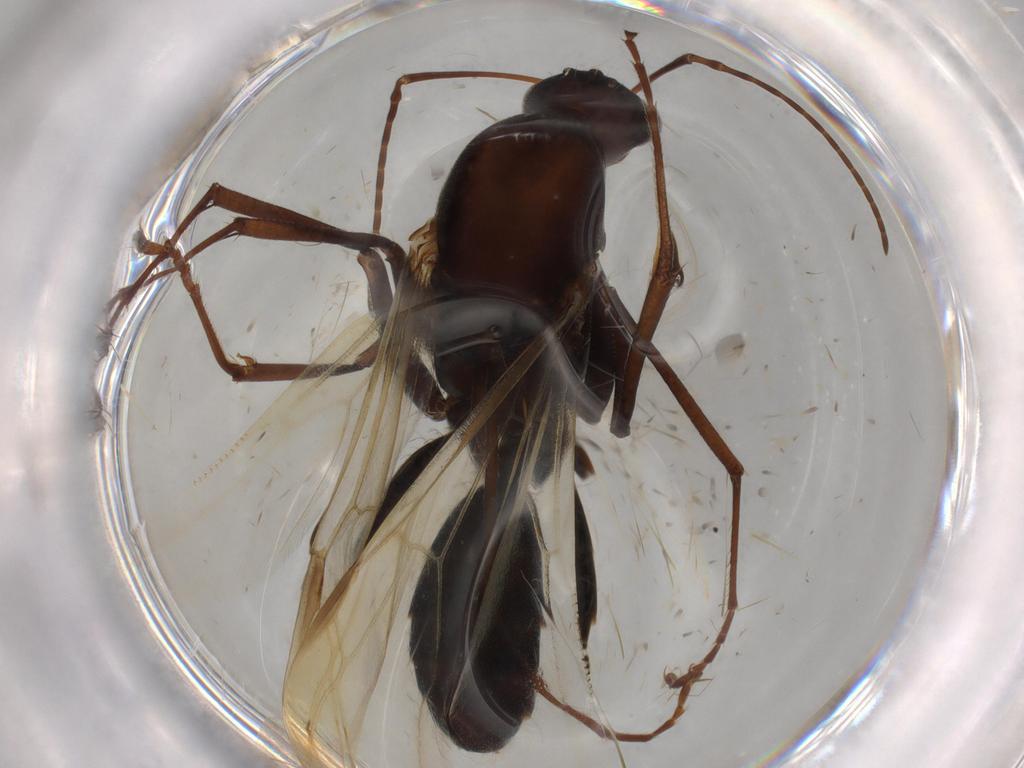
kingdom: Animalia
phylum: Arthropoda
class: Insecta
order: Hymenoptera
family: Formicidae
